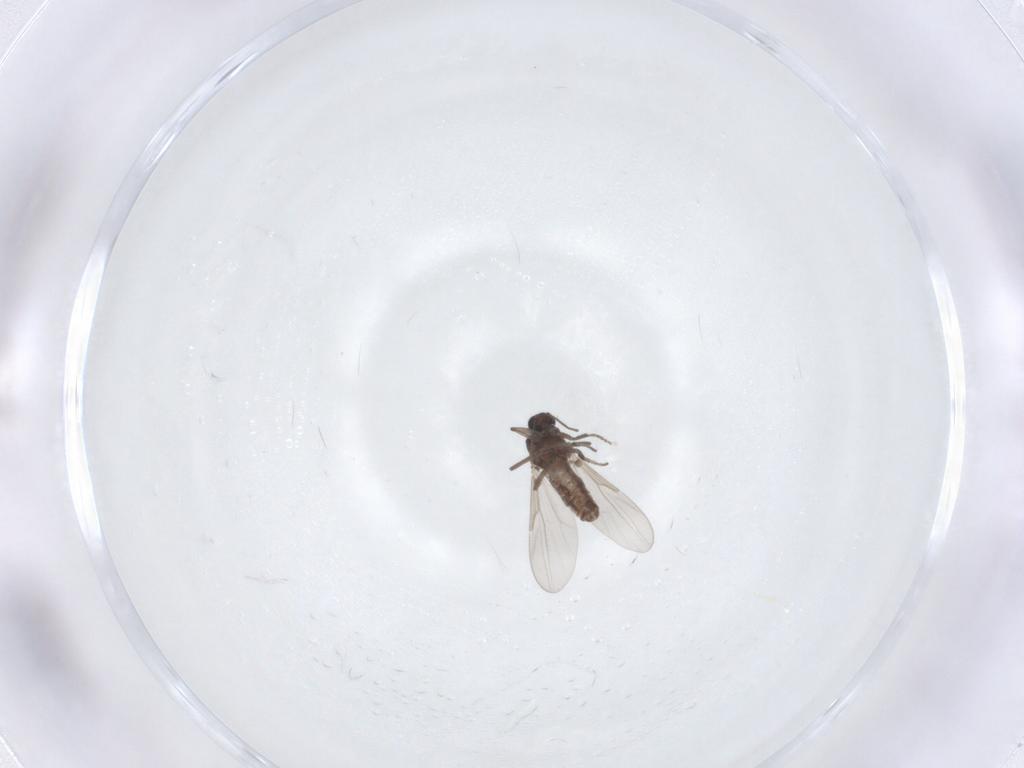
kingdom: Animalia
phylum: Arthropoda
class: Insecta
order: Diptera
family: Ceratopogonidae
